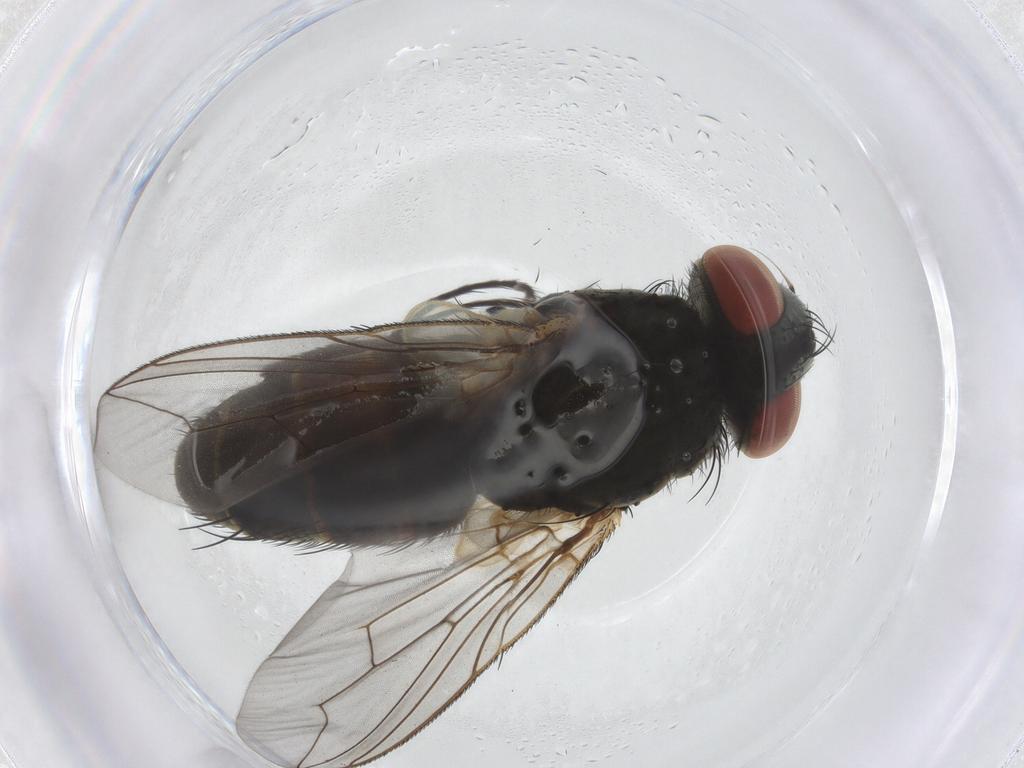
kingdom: Animalia
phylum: Arthropoda
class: Insecta
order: Diptera
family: Sarcophagidae
